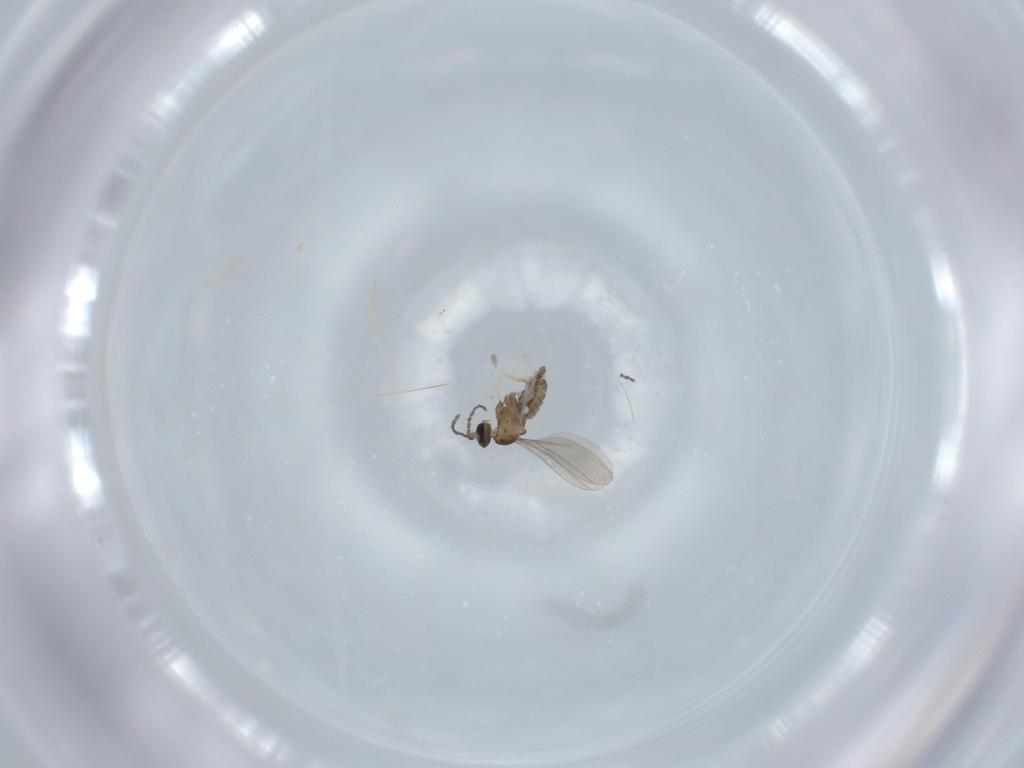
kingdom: Animalia
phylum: Arthropoda
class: Insecta
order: Diptera
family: Cecidomyiidae
